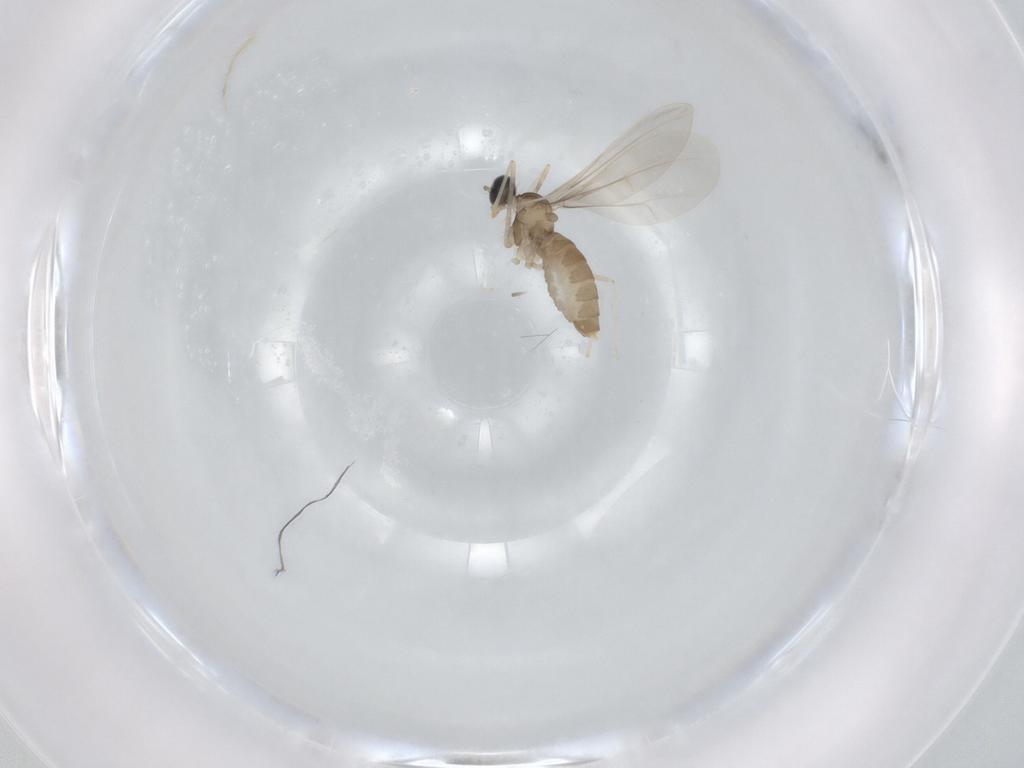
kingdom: Animalia
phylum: Arthropoda
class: Insecta
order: Diptera
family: Cecidomyiidae
